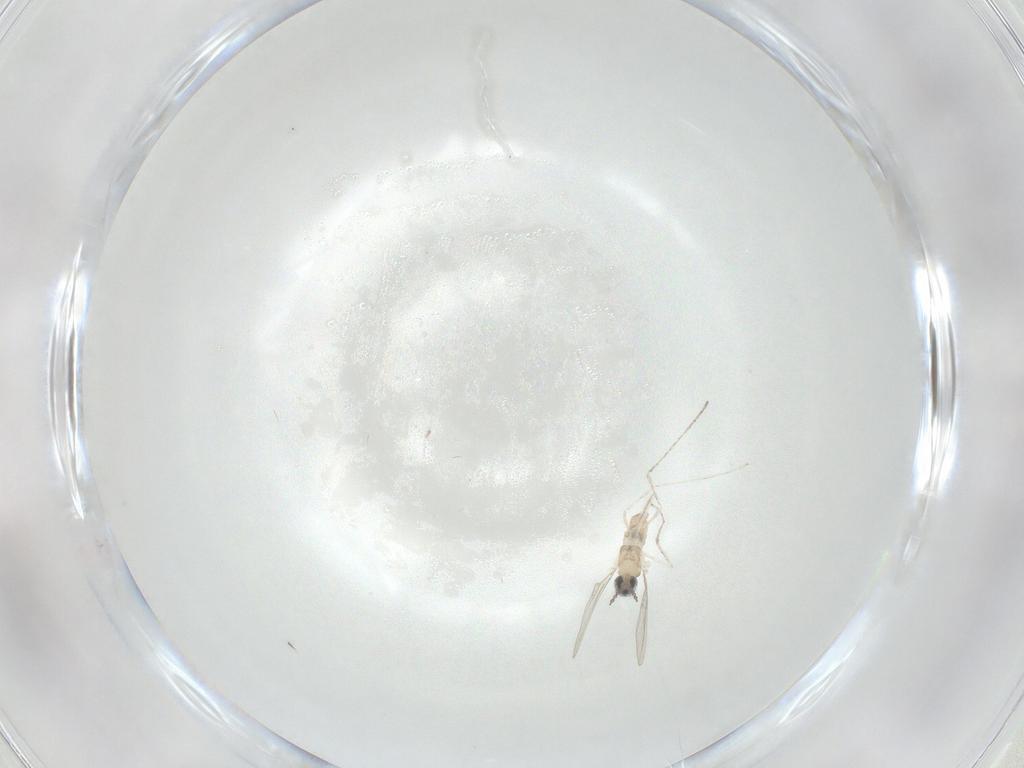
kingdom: Animalia
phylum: Arthropoda
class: Insecta
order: Diptera
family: Cecidomyiidae
